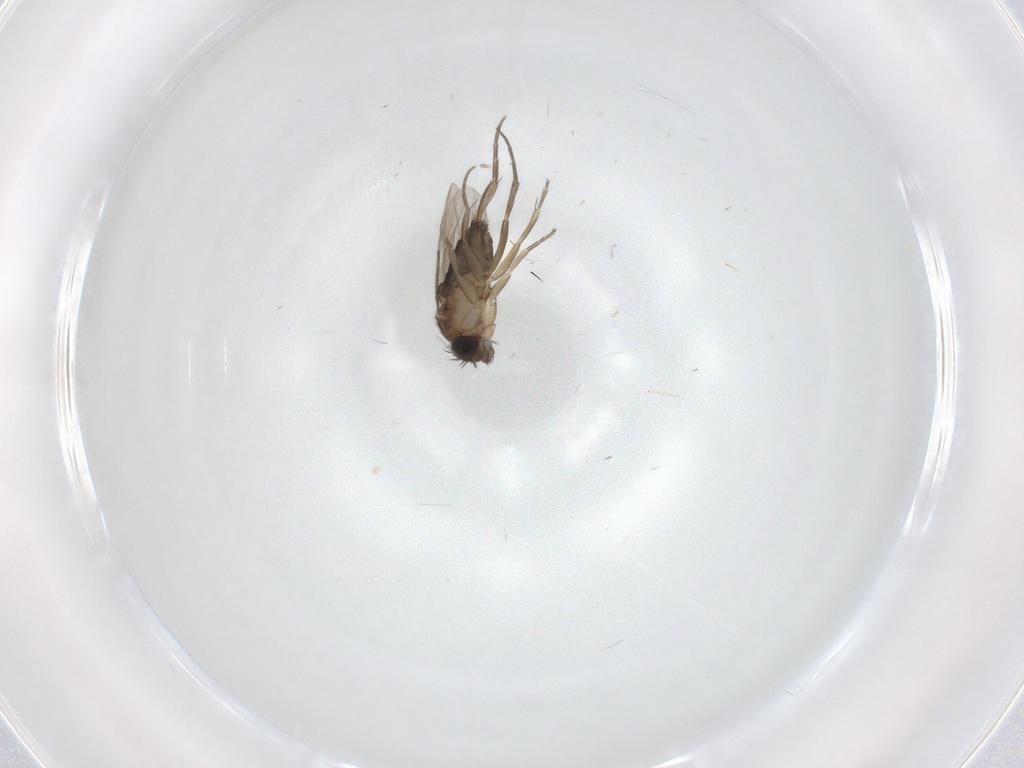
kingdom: Animalia
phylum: Arthropoda
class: Insecta
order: Diptera
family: Phoridae
